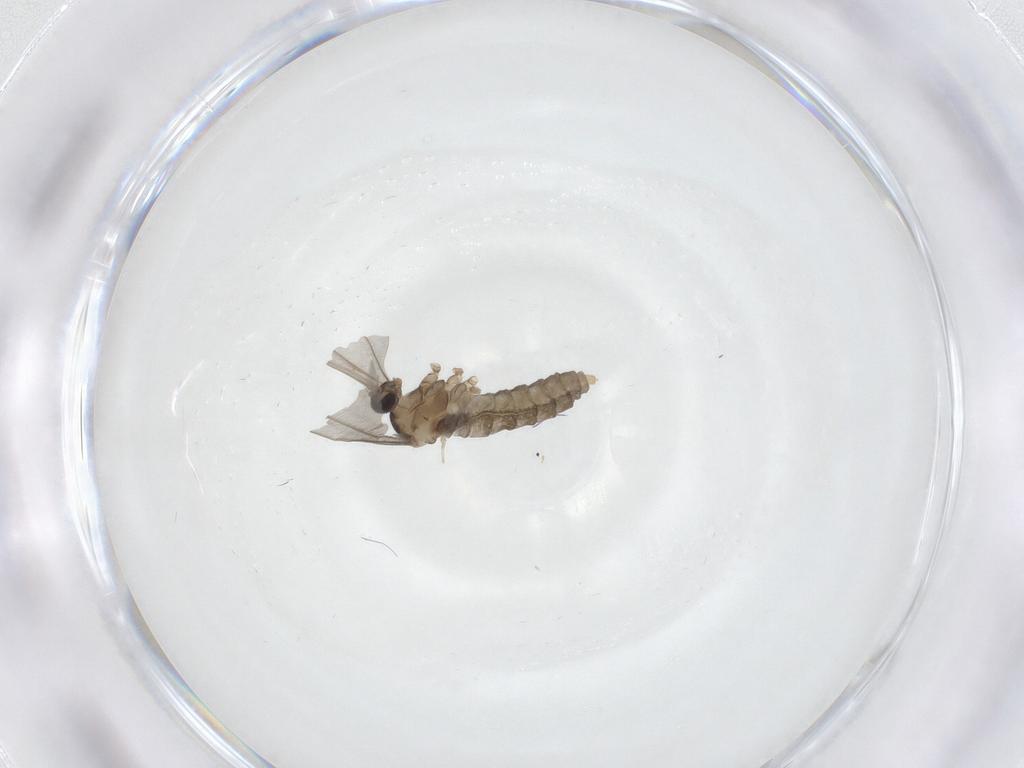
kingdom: Animalia
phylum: Arthropoda
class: Insecta
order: Diptera
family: Cecidomyiidae
